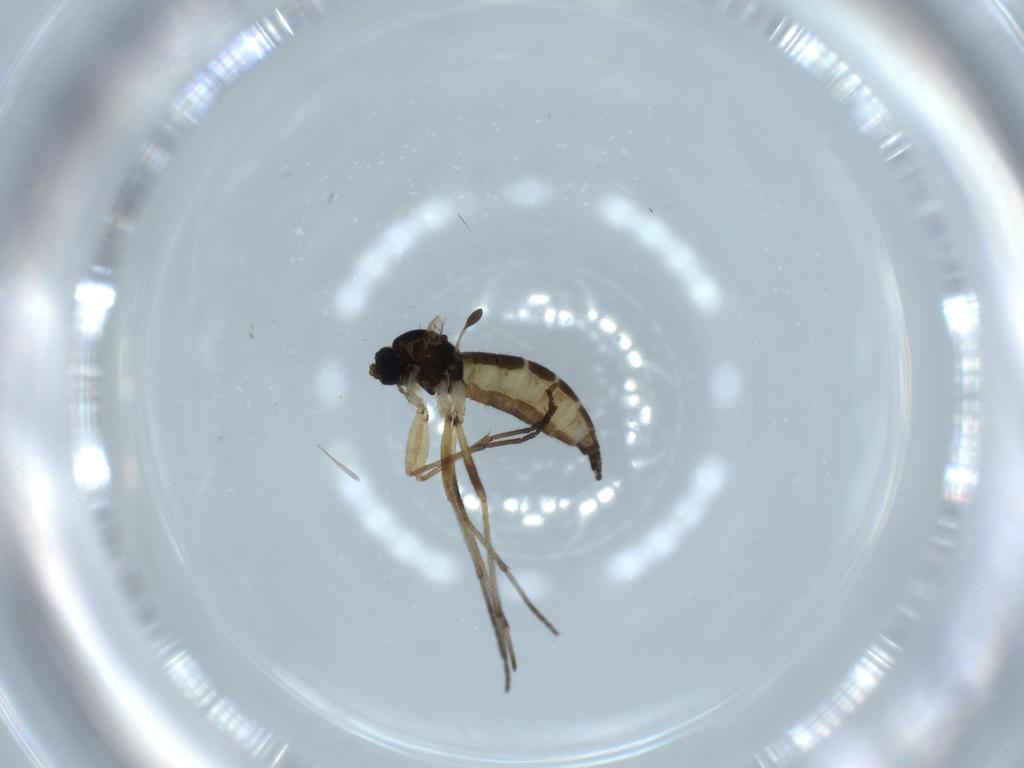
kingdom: Animalia
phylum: Arthropoda
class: Insecta
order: Diptera
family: Sciaridae
